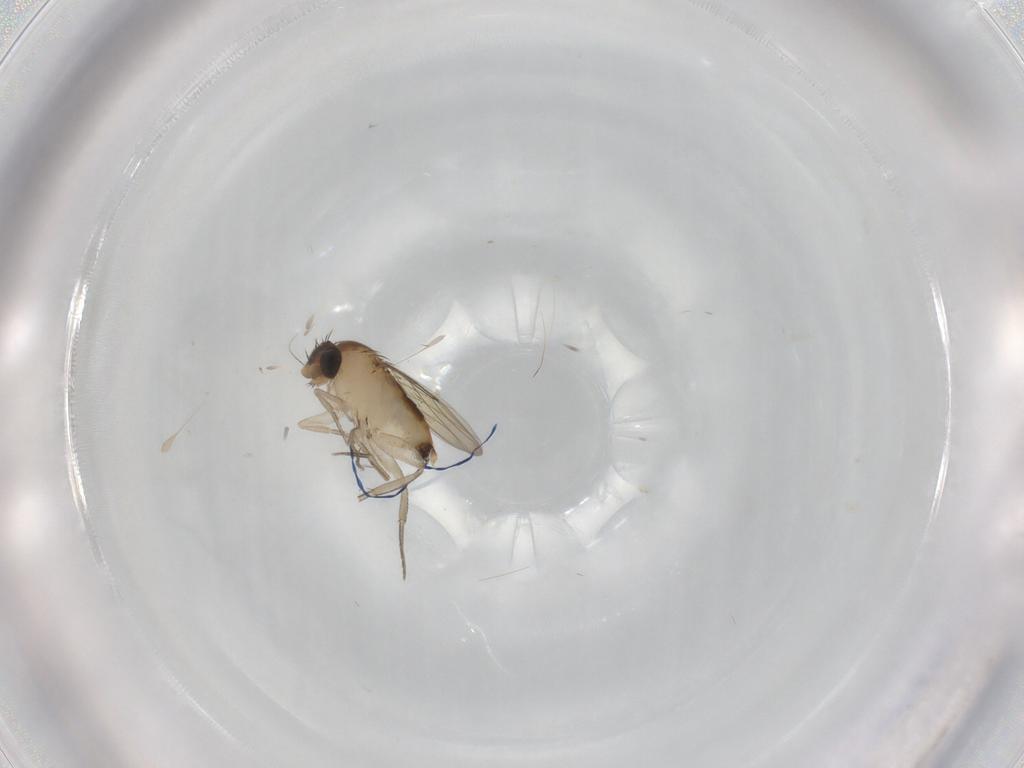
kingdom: Animalia
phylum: Arthropoda
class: Insecta
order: Diptera
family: Phoridae
